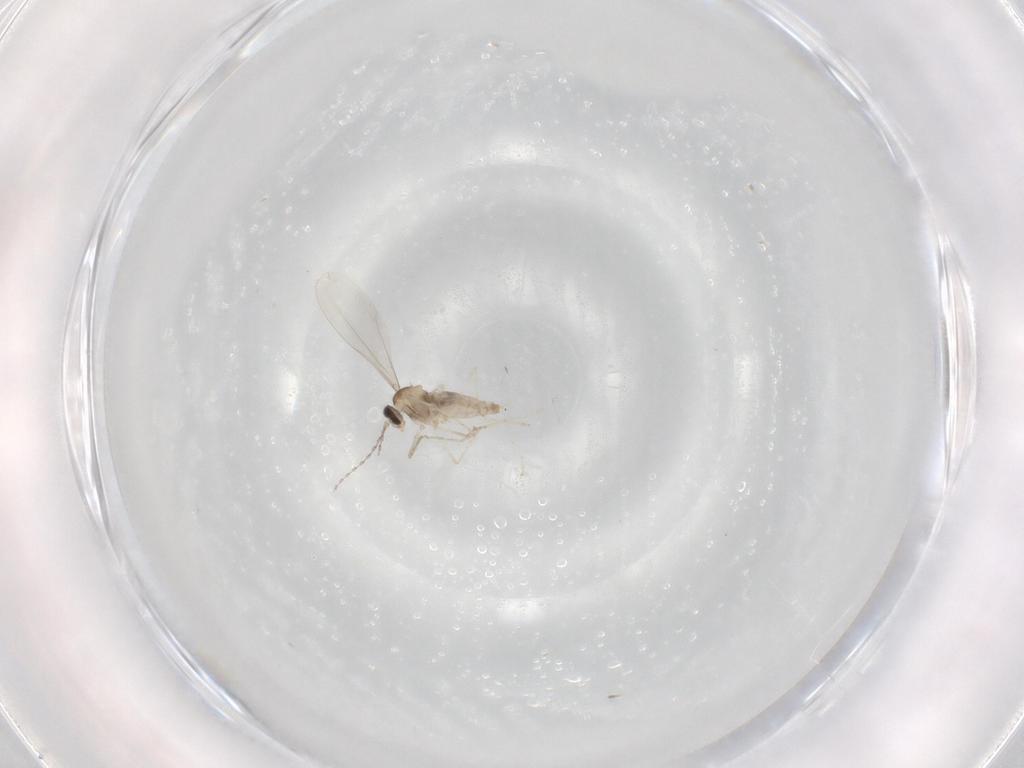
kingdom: Animalia
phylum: Arthropoda
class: Insecta
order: Diptera
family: Cecidomyiidae
